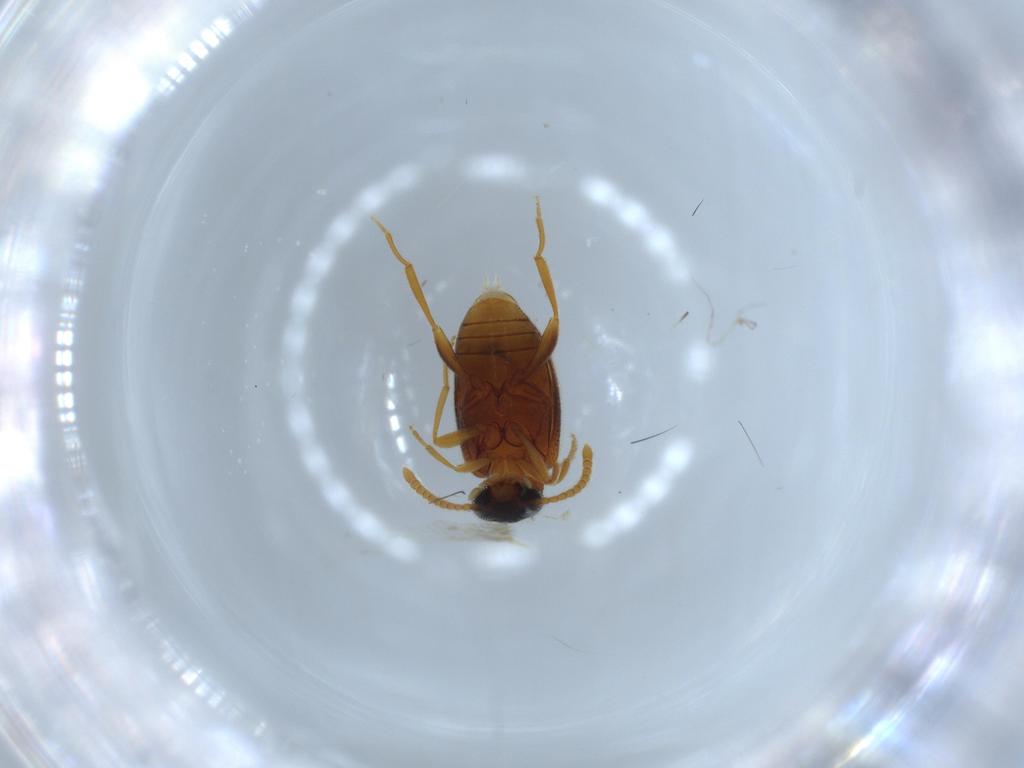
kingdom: Animalia
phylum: Arthropoda
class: Insecta
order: Coleoptera
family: Aderidae
